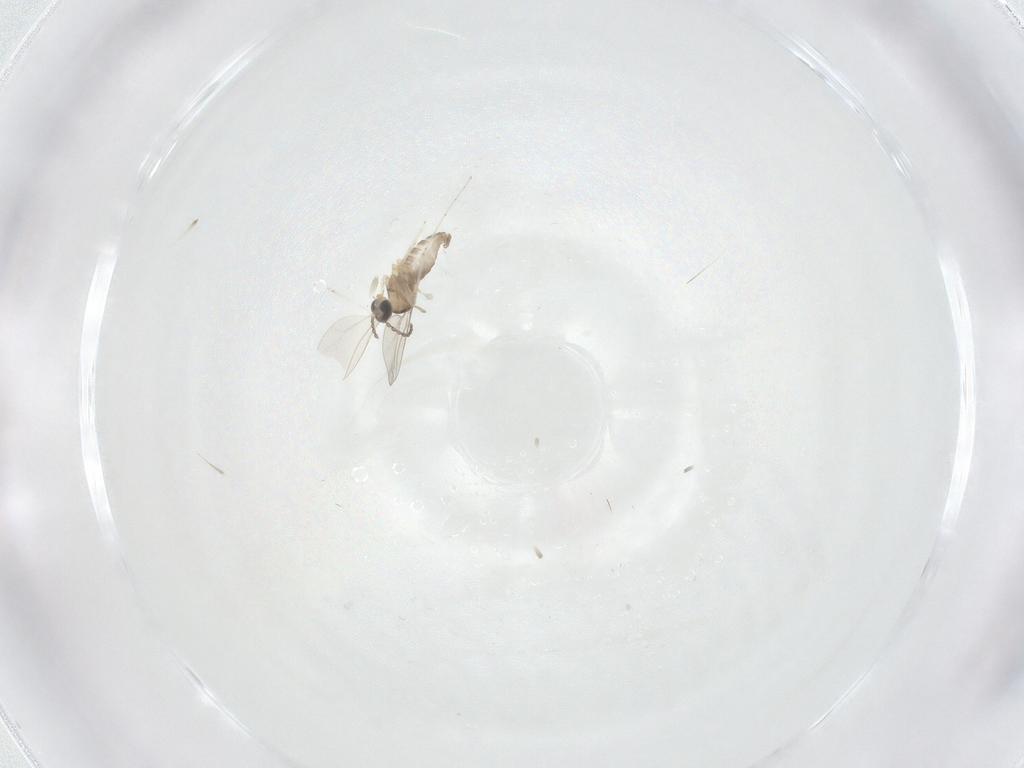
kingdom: Animalia
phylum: Arthropoda
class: Insecta
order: Diptera
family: Cecidomyiidae
